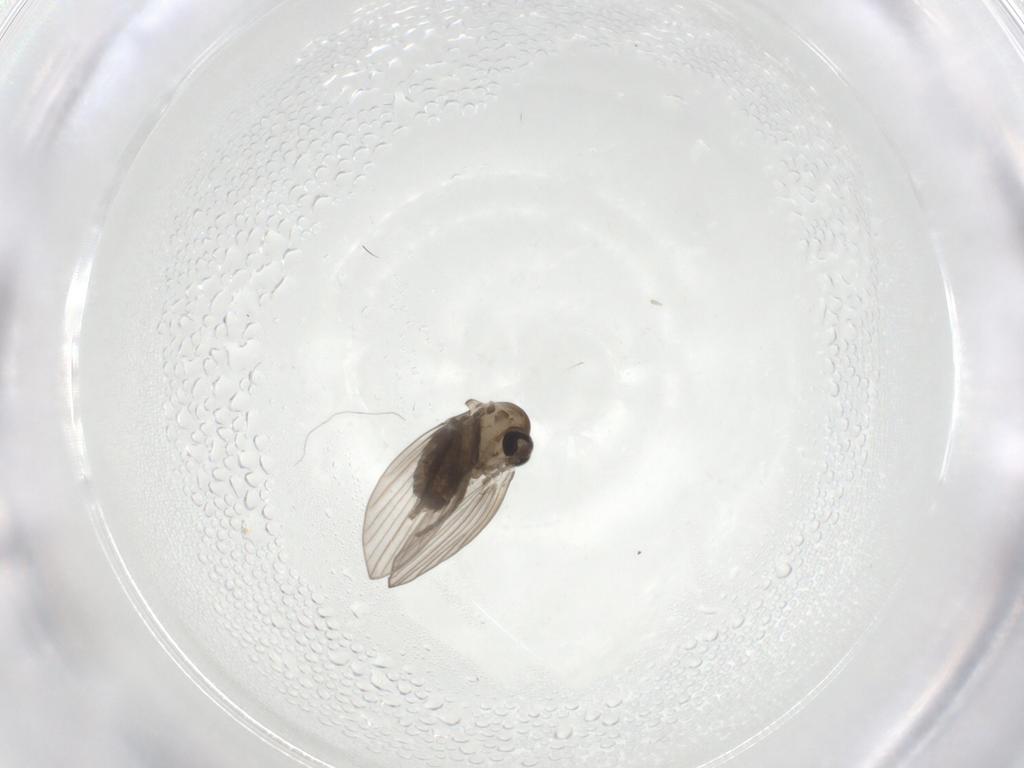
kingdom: Animalia
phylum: Arthropoda
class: Insecta
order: Diptera
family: Psychodidae
